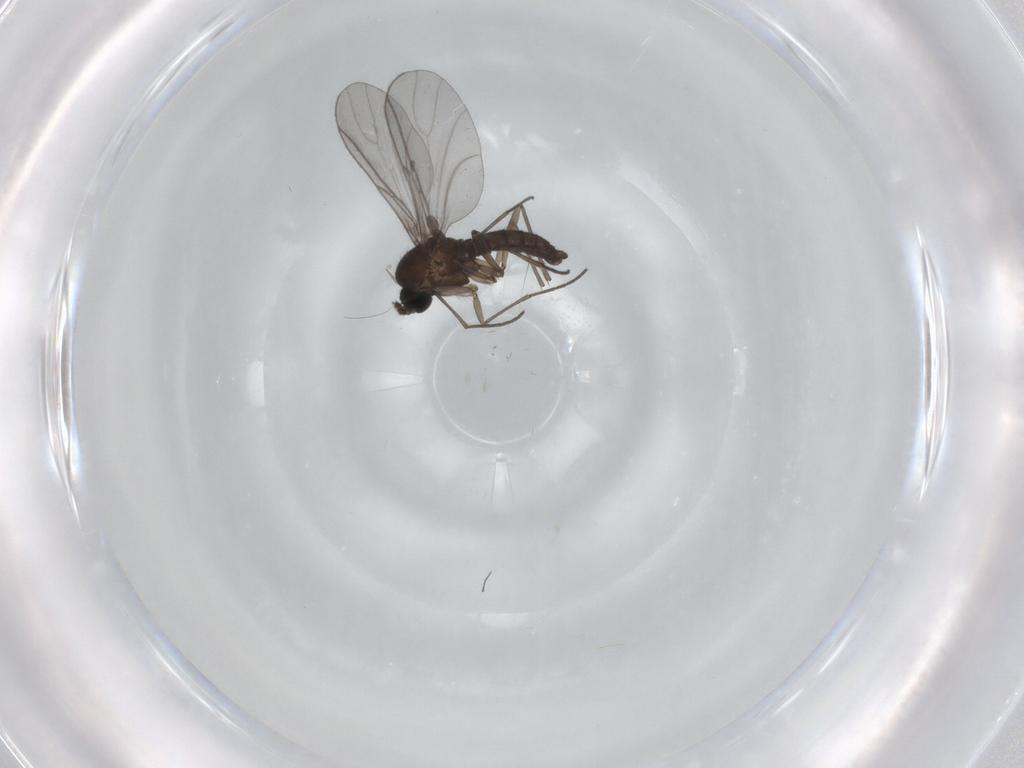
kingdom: Animalia
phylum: Arthropoda
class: Insecta
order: Diptera
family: Sciaridae
